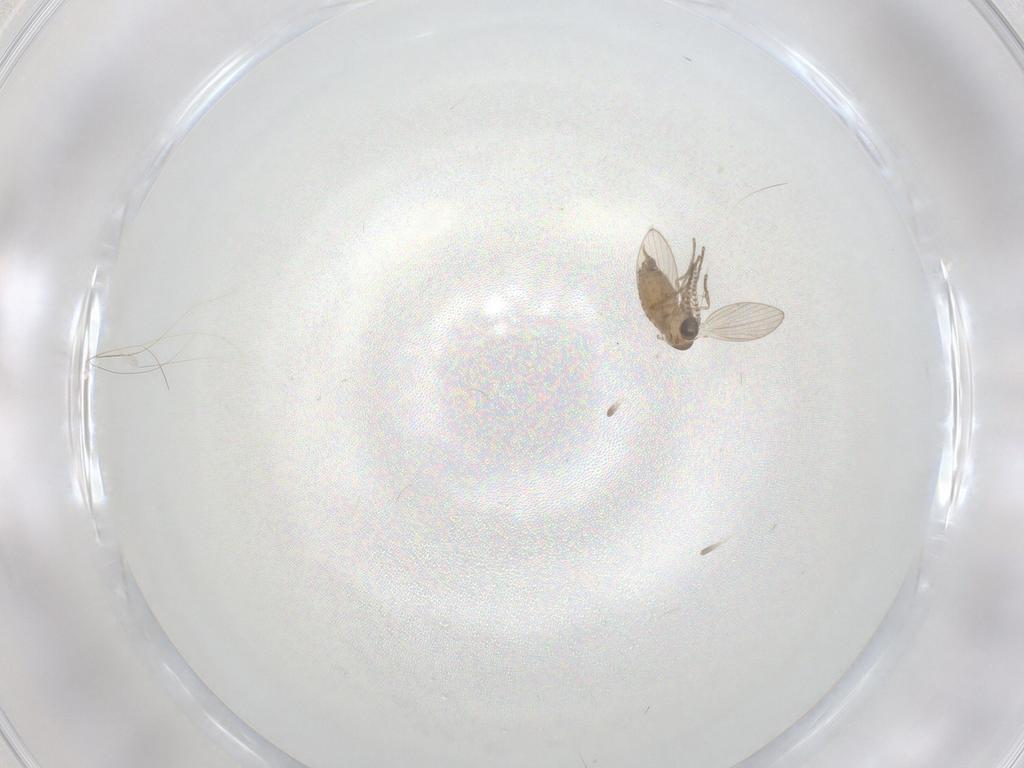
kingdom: Animalia
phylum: Arthropoda
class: Insecta
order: Diptera
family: Psychodidae
